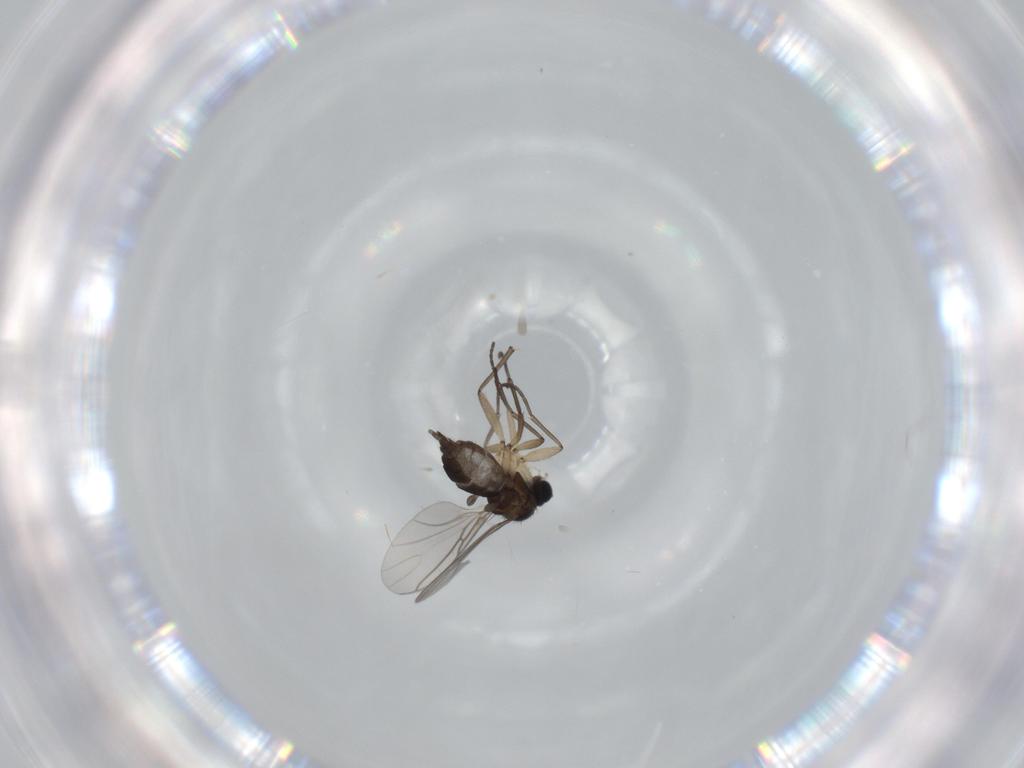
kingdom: Animalia
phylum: Arthropoda
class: Insecta
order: Diptera
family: Sciaridae
